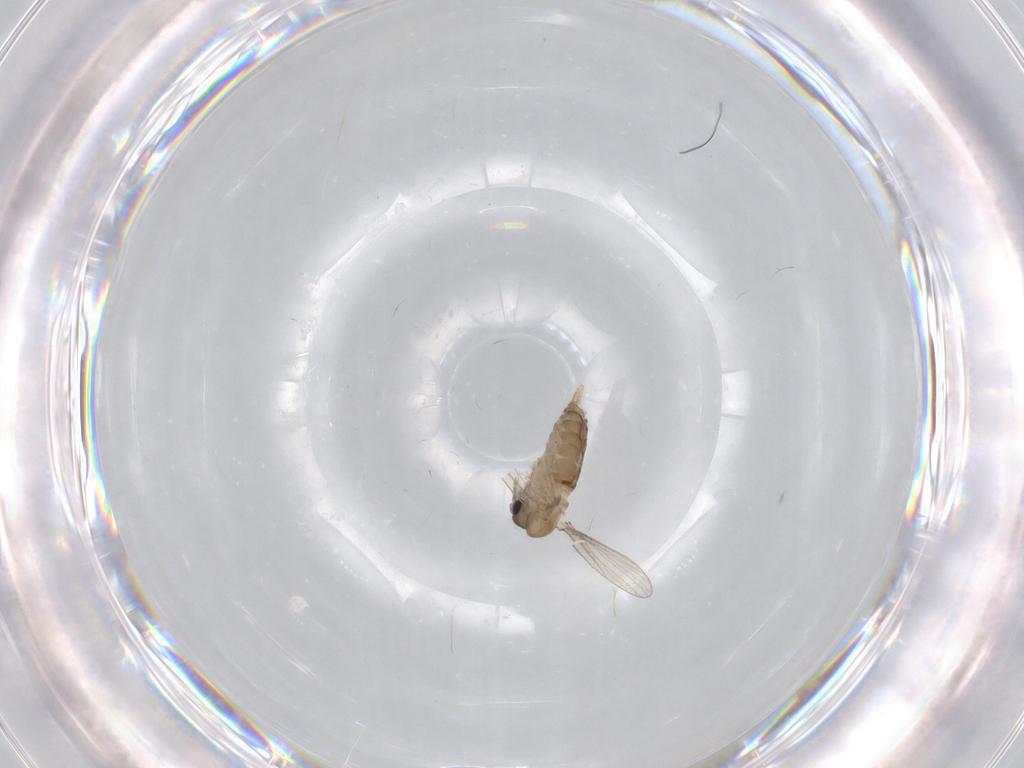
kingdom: Animalia
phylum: Arthropoda
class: Insecta
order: Diptera
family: Psychodidae
